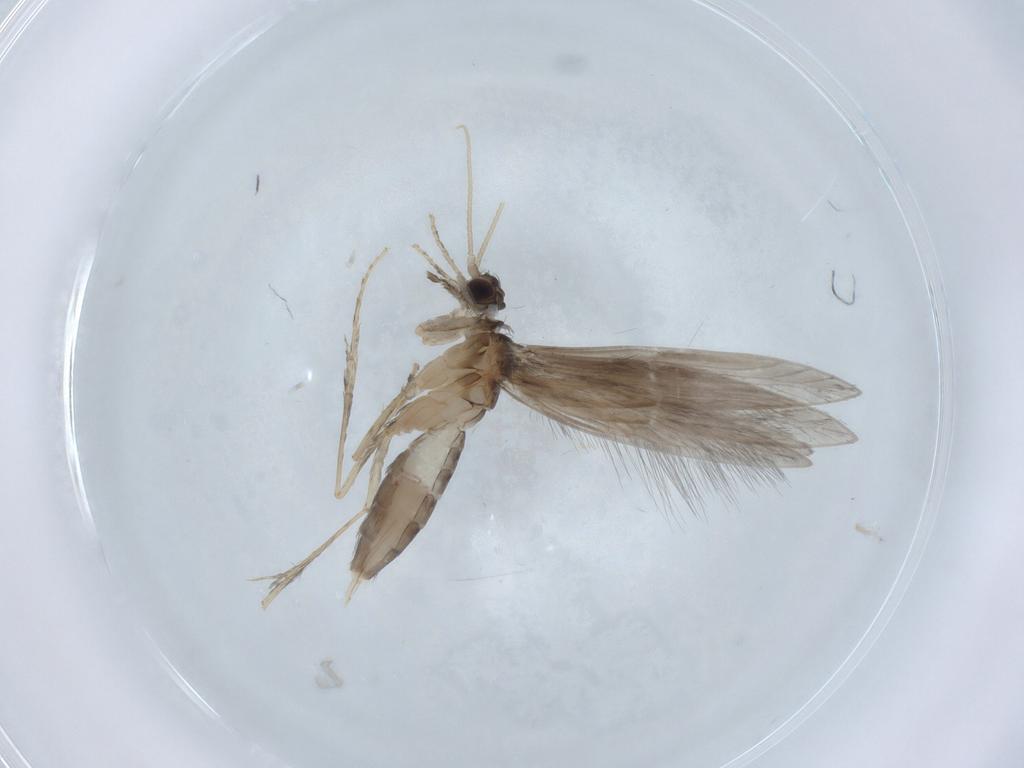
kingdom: Animalia
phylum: Arthropoda
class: Insecta
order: Trichoptera
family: Hydroptilidae
